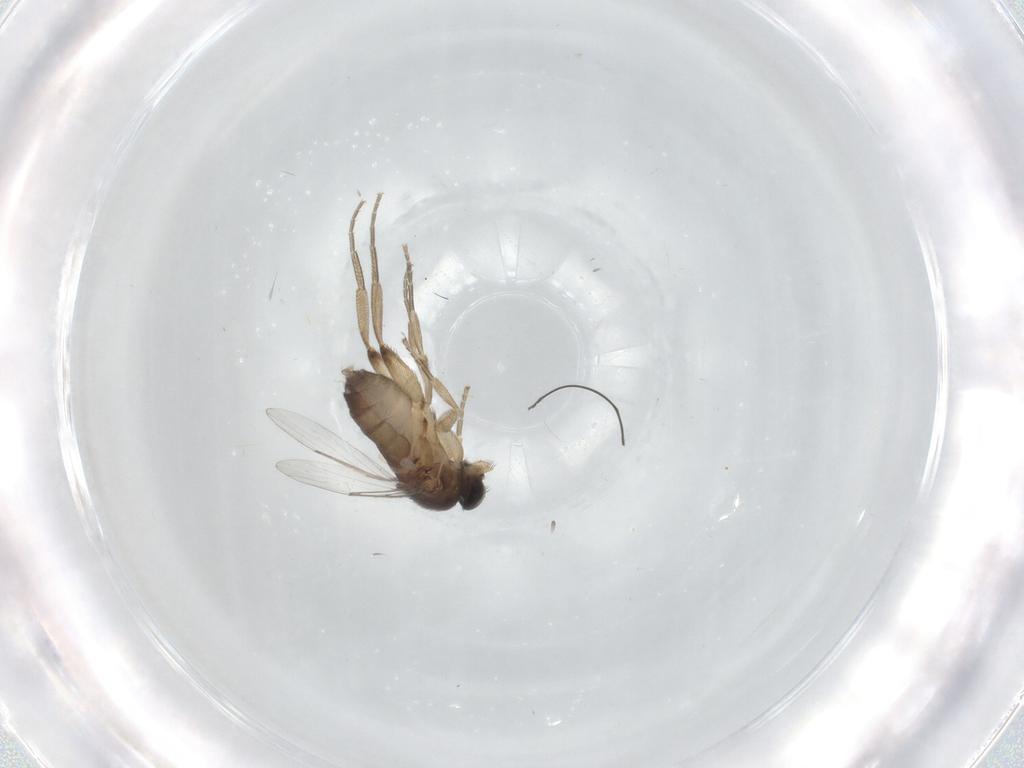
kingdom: Animalia
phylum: Arthropoda
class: Insecta
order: Diptera
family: Phoridae
